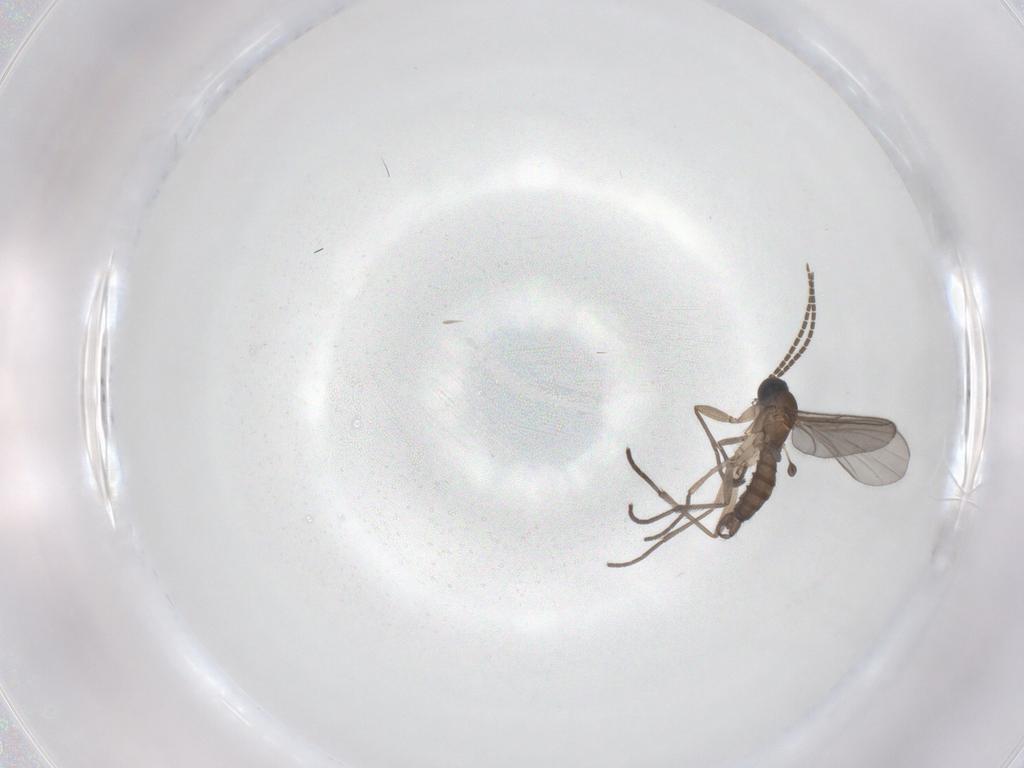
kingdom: Animalia
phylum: Arthropoda
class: Insecta
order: Diptera
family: Sciaridae
